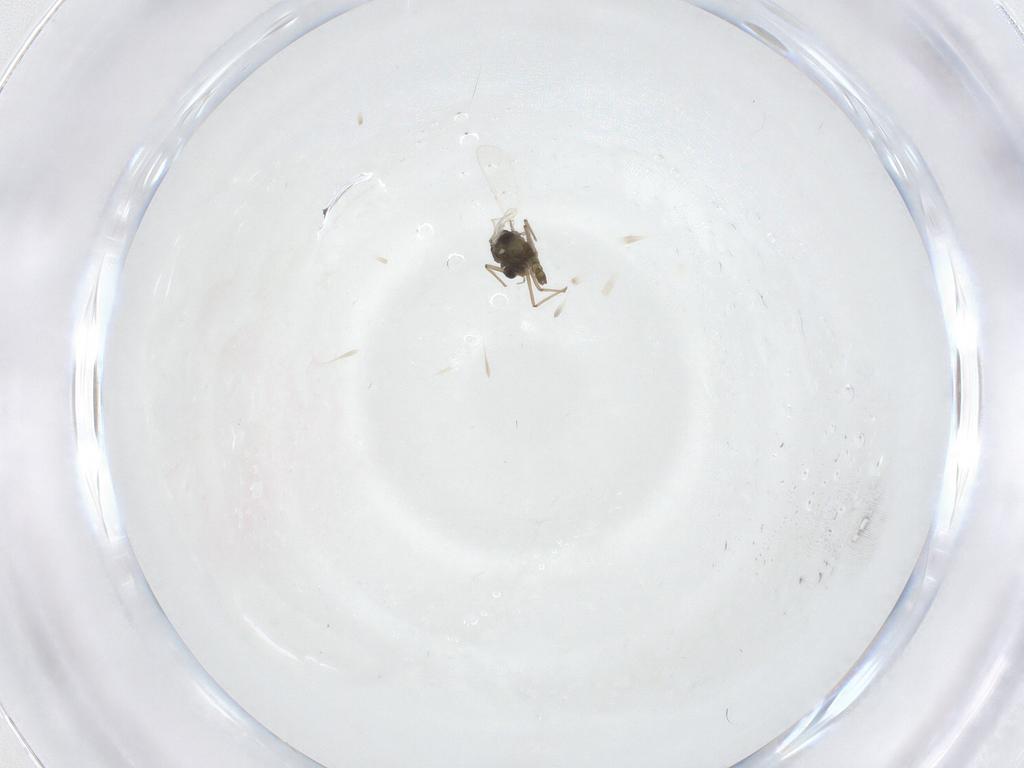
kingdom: Animalia
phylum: Arthropoda
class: Insecta
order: Diptera
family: Chironomidae
